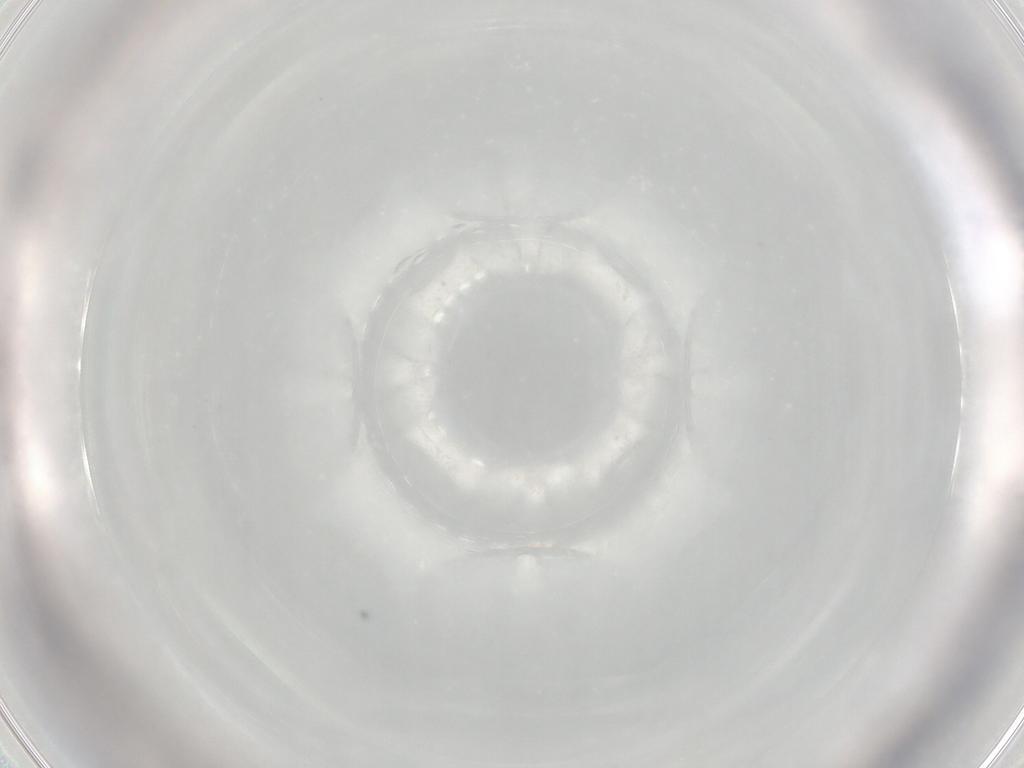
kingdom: Animalia
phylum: Arthropoda
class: Insecta
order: Diptera
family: Phoridae
